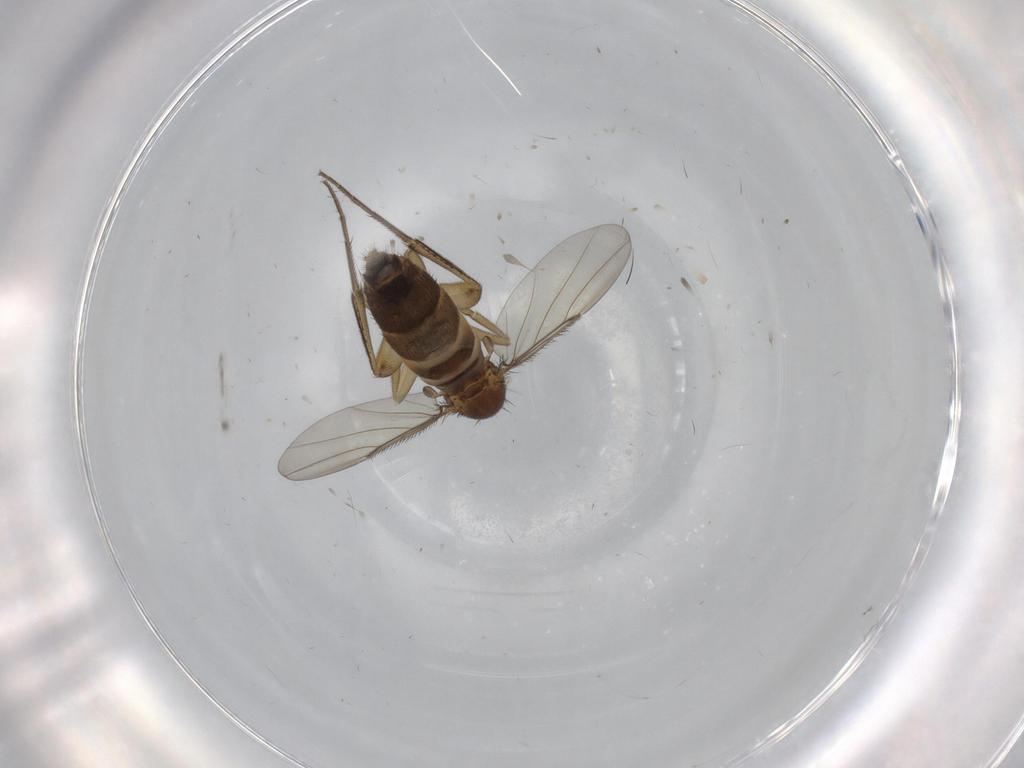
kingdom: Animalia
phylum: Arthropoda
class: Insecta
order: Diptera
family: Phoridae
